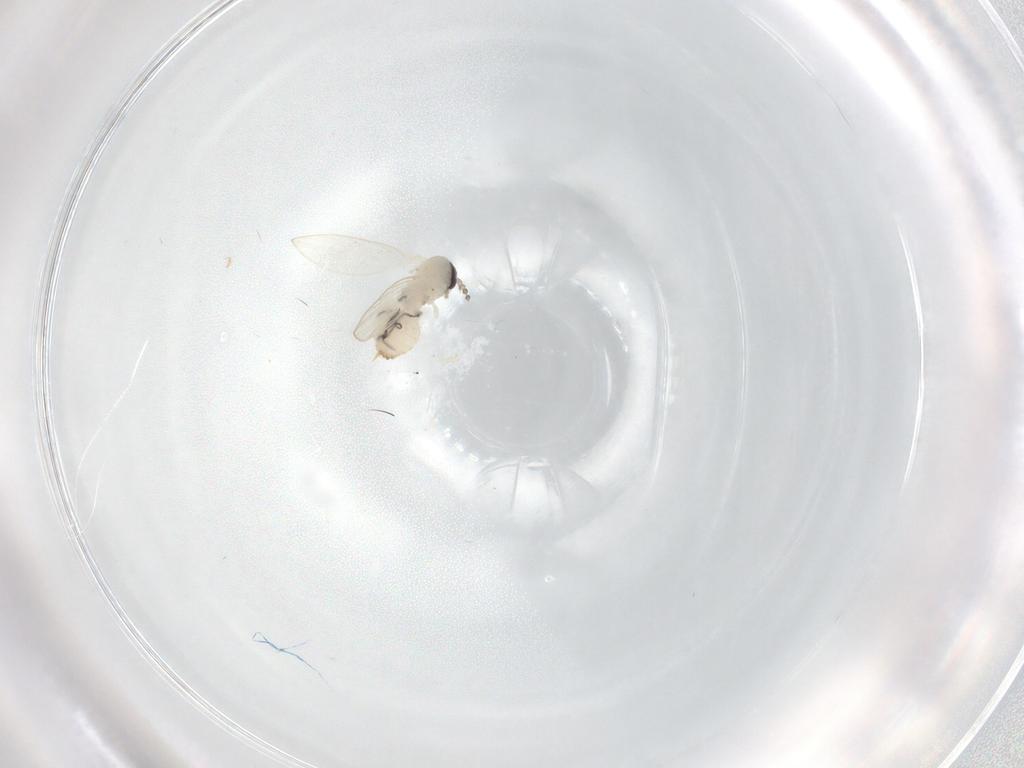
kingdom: Animalia
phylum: Arthropoda
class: Insecta
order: Diptera
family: Psychodidae
